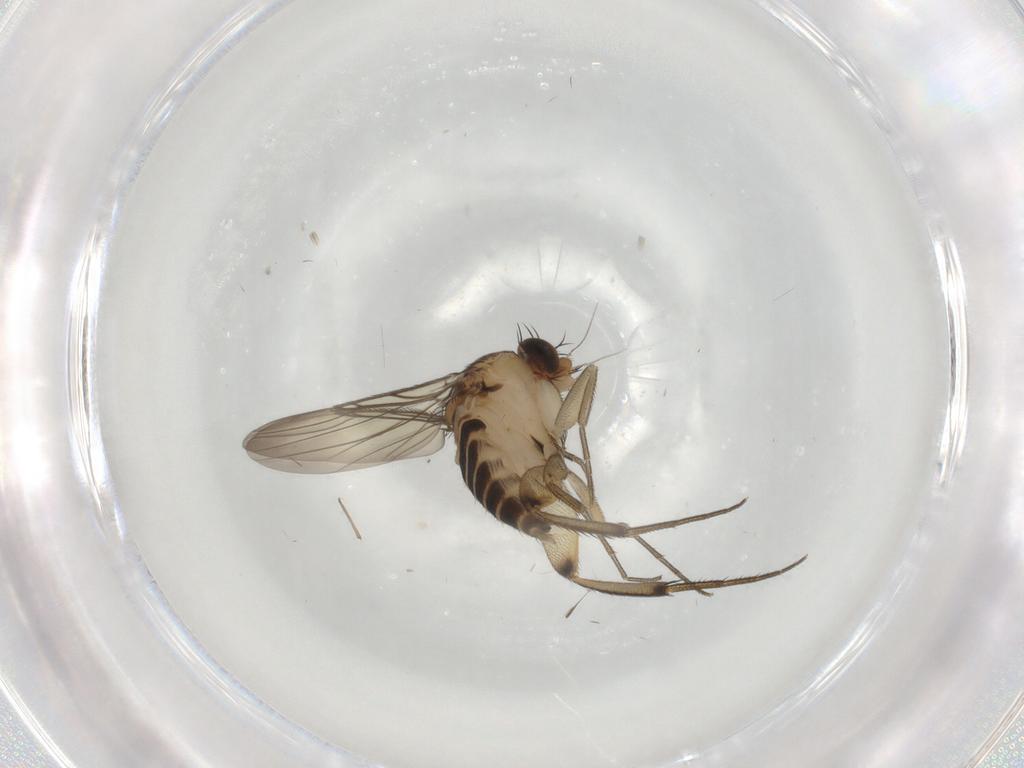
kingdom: Animalia
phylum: Arthropoda
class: Insecta
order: Diptera
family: Phoridae
